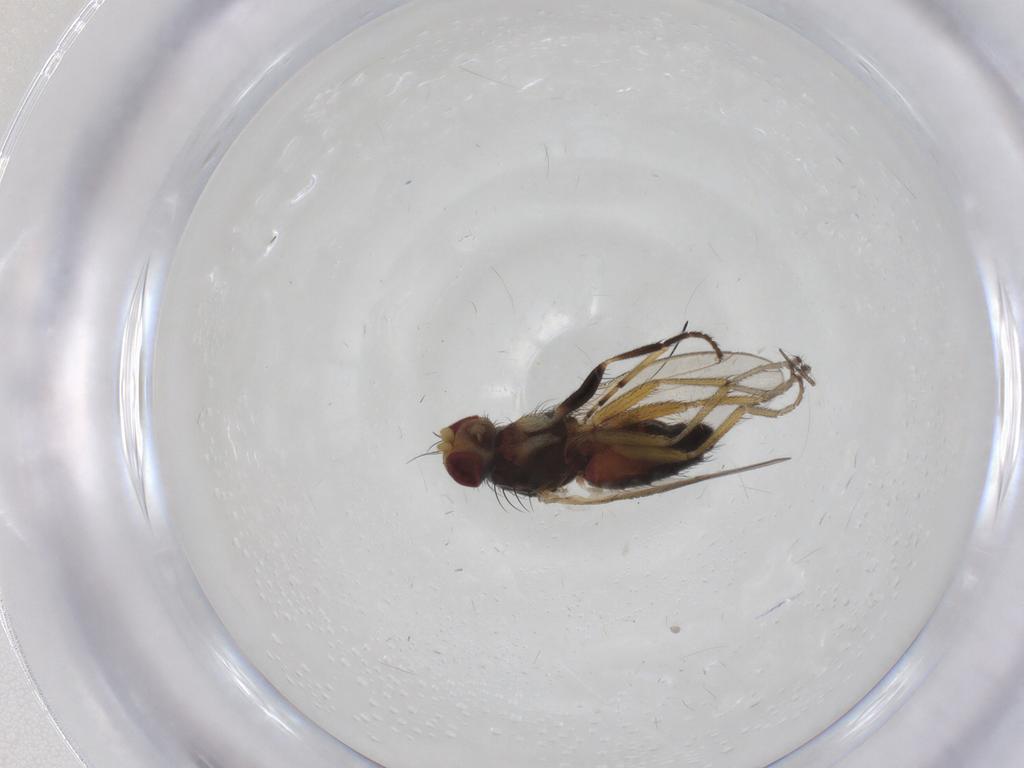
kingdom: Animalia
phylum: Arthropoda
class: Insecta
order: Diptera
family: Heleomyzidae
